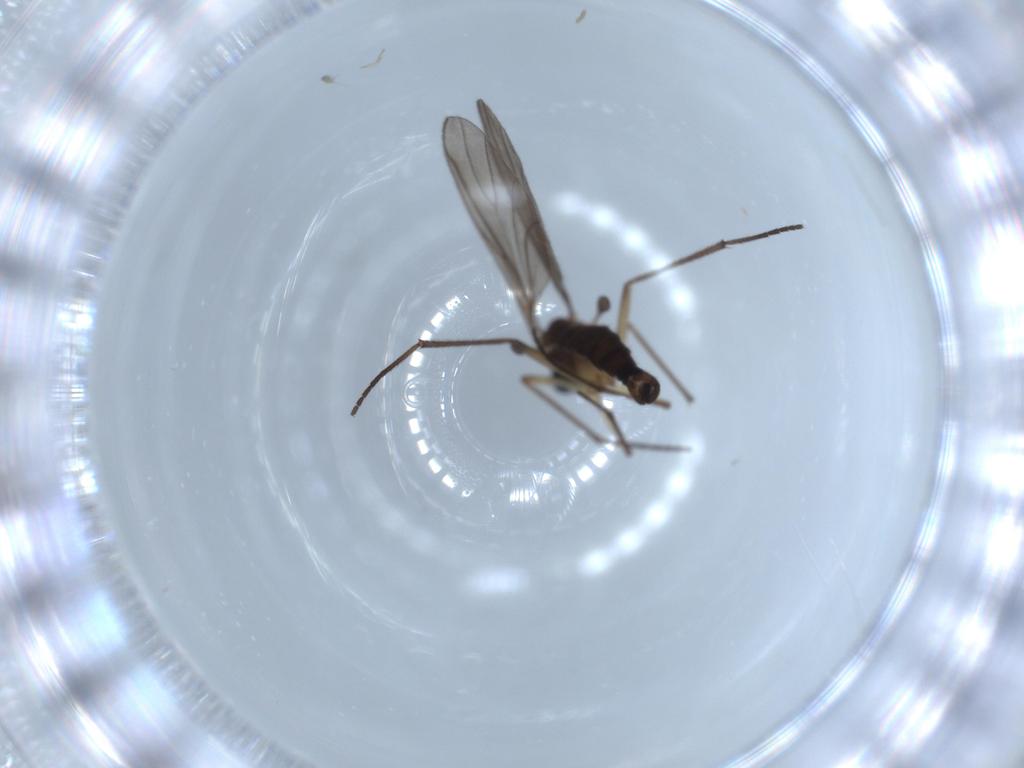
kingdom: Animalia
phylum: Arthropoda
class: Insecta
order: Diptera
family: Sciaridae
